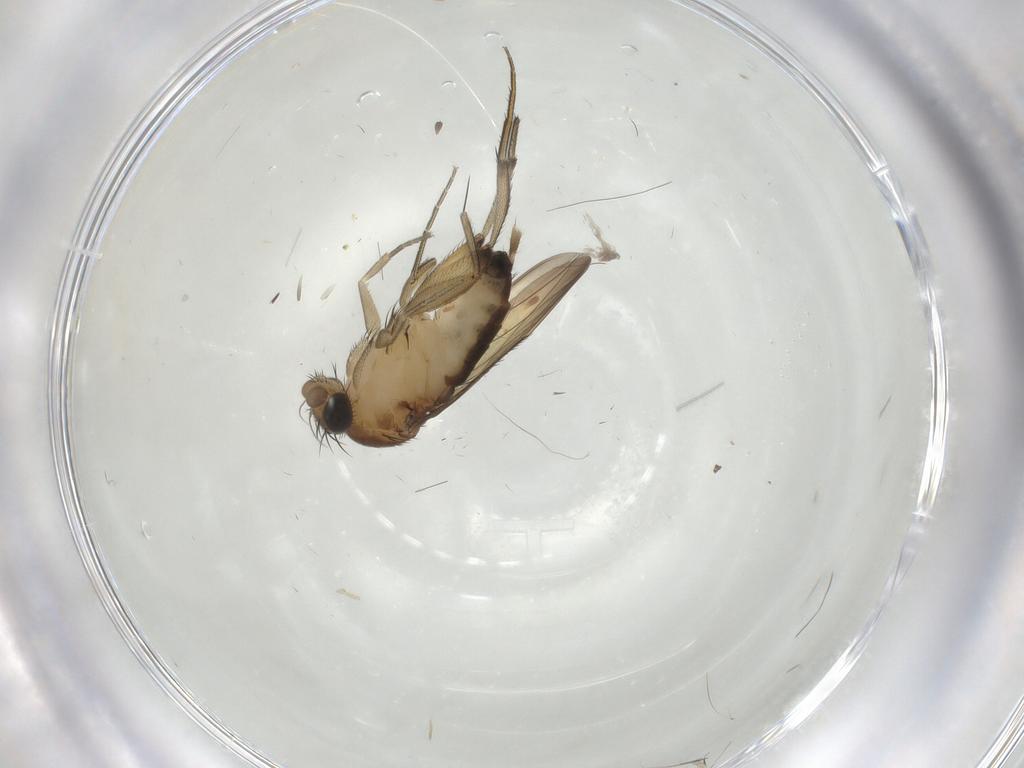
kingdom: Animalia
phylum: Arthropoda
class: Insecta
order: Diptera
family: Phoridae
